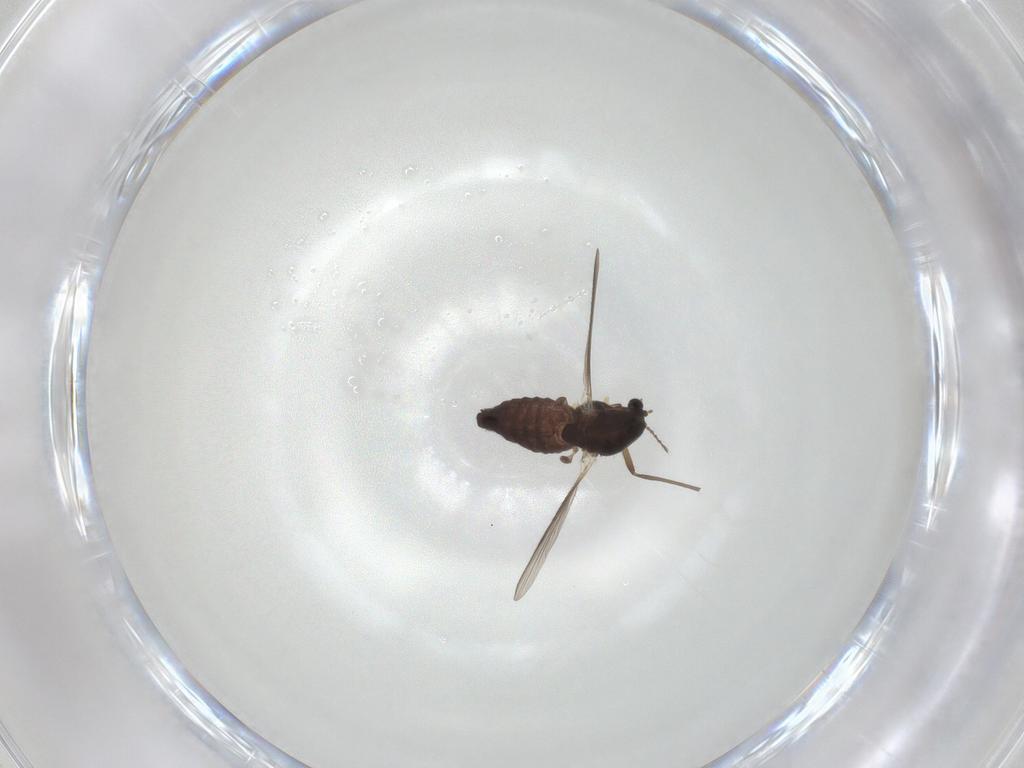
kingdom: Animalia
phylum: Arthropoda
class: Insecta
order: Diptera
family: Chironomidae
